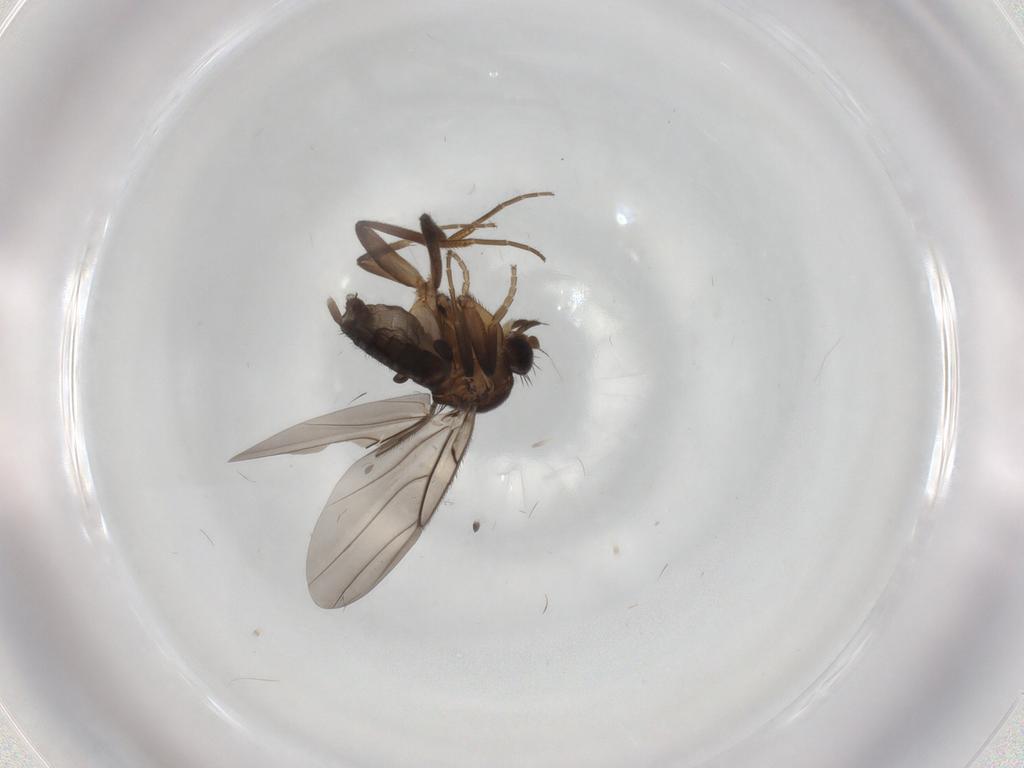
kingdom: Animalia
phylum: Arthropoda
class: Insecta
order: Diptera
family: Phoridae
